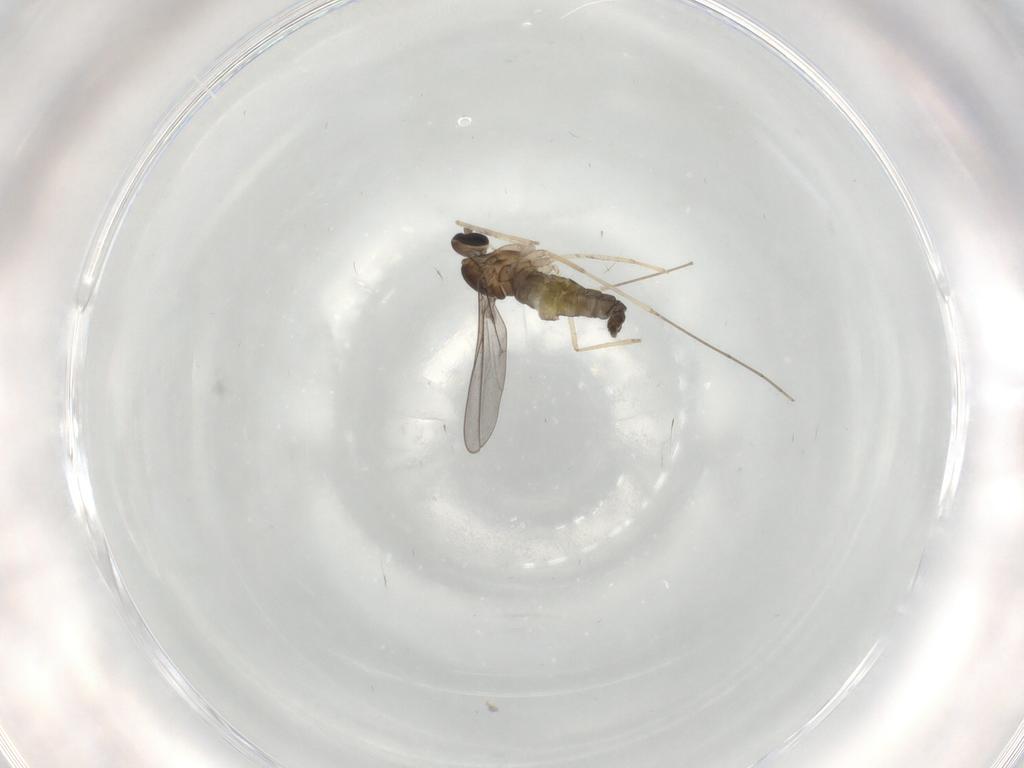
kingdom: Animalia
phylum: Arthropoda
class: Insecta
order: Diptera
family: Cecidomyiidae
